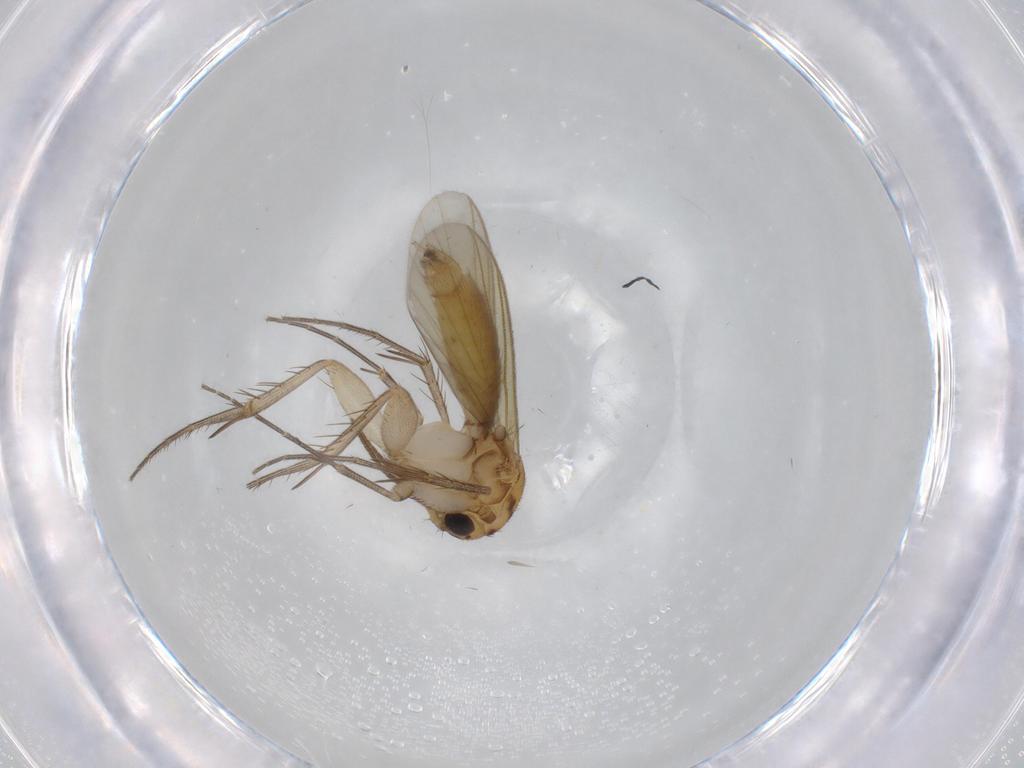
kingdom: Animalia
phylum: Arthropoda
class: Insecta
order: Diptera
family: Mycetophilidae
